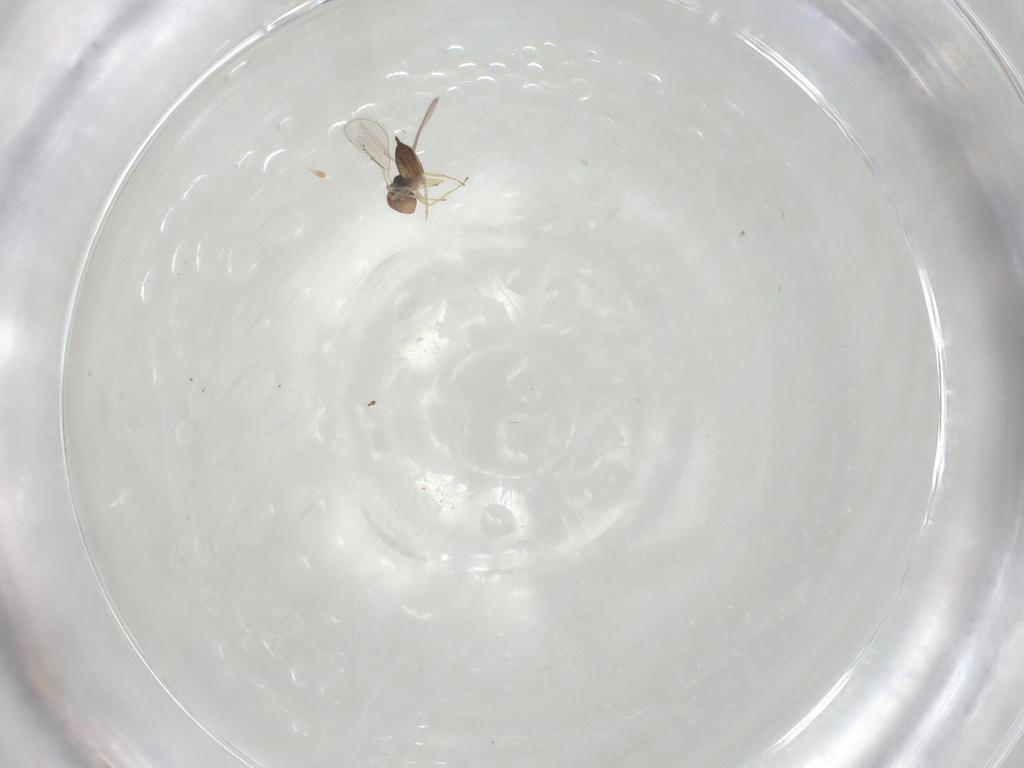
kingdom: Animalia
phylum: Arthropoda
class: Insecta
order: Hymenoptera
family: Eulophidae
